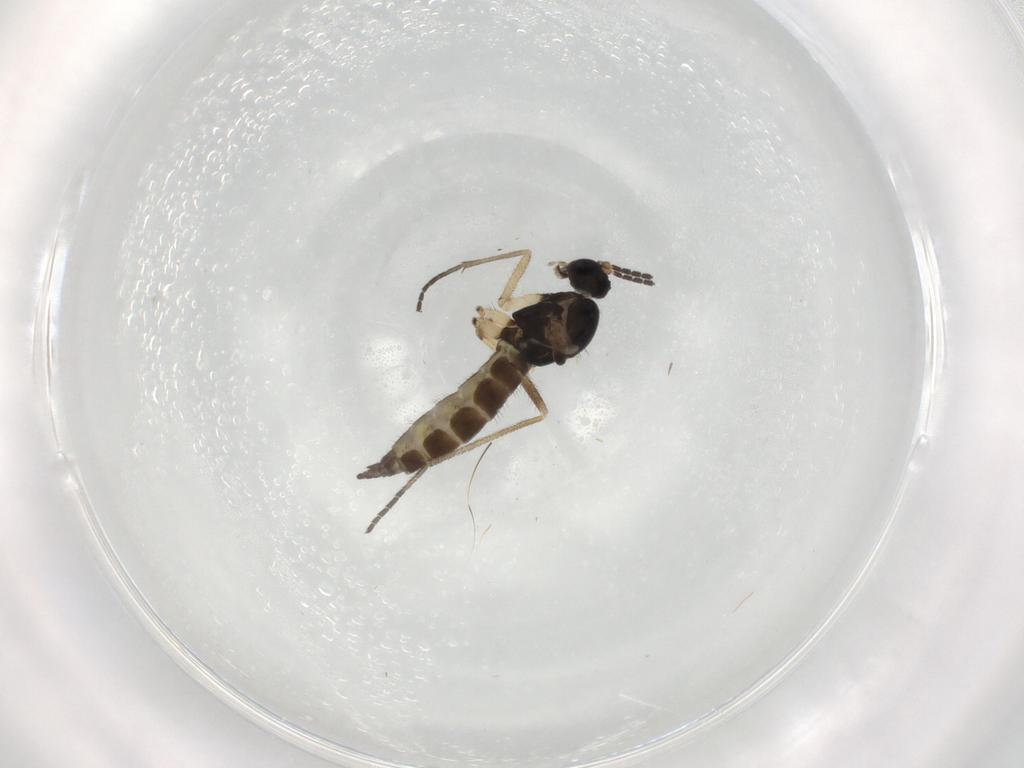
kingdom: Animalia
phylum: Arthropoda
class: Insecta
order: Diptera
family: Sciaridae
